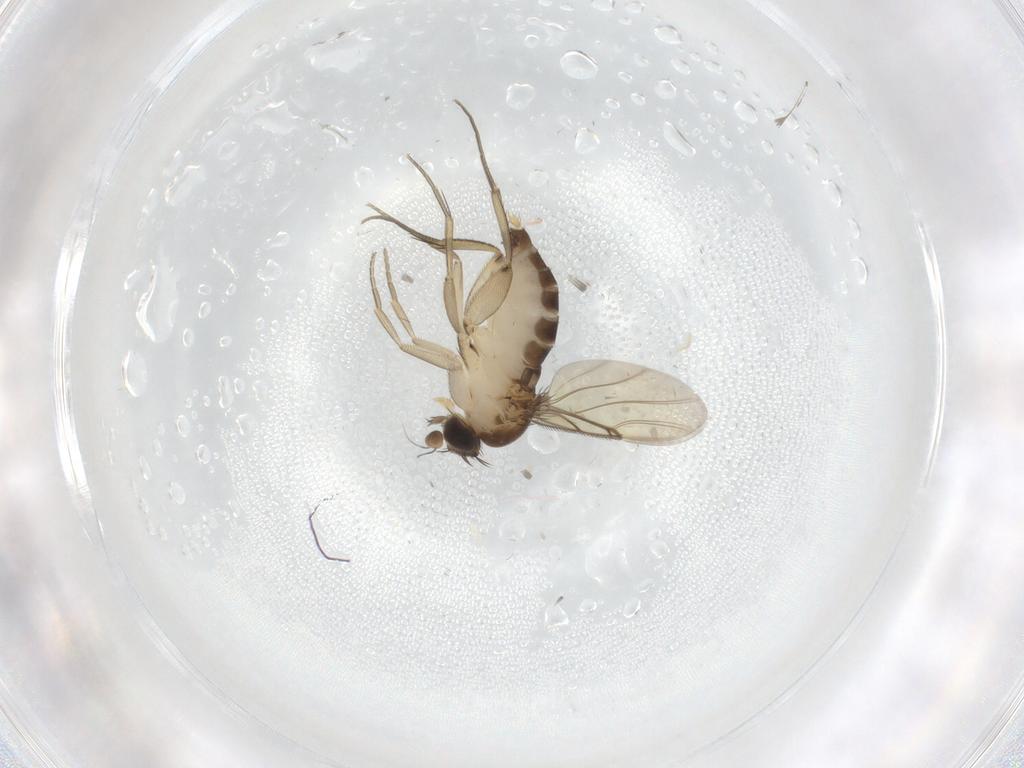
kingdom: Animalia
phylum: Arthropoda
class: Insecta
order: Diptera
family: Phoridae
